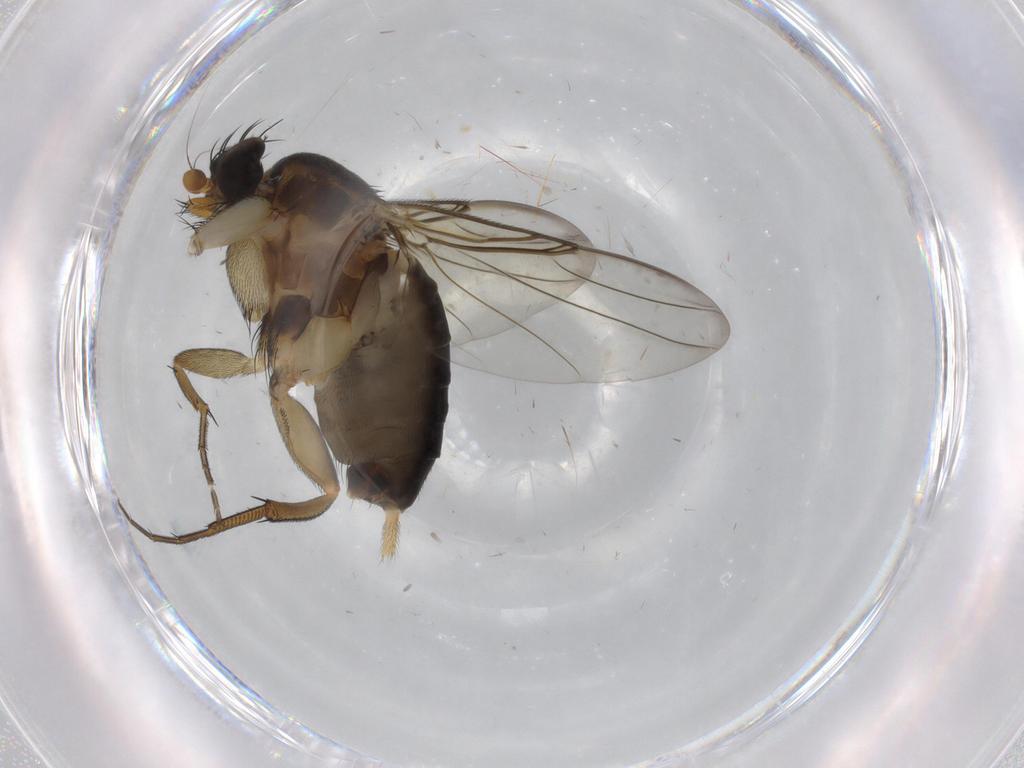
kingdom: Animalia
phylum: Arthropoda
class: Insecta
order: Diptera
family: Phoridae
